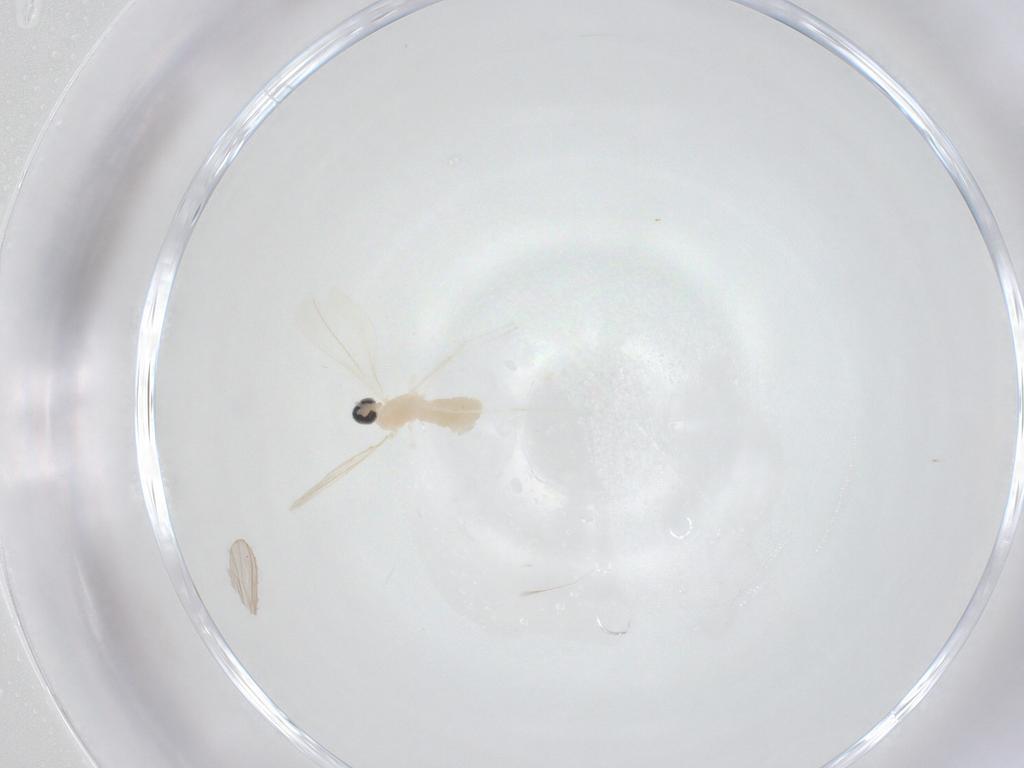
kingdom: Animalia
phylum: Arthropoda
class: Insecta
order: Diptera
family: Cecidomyiidae
